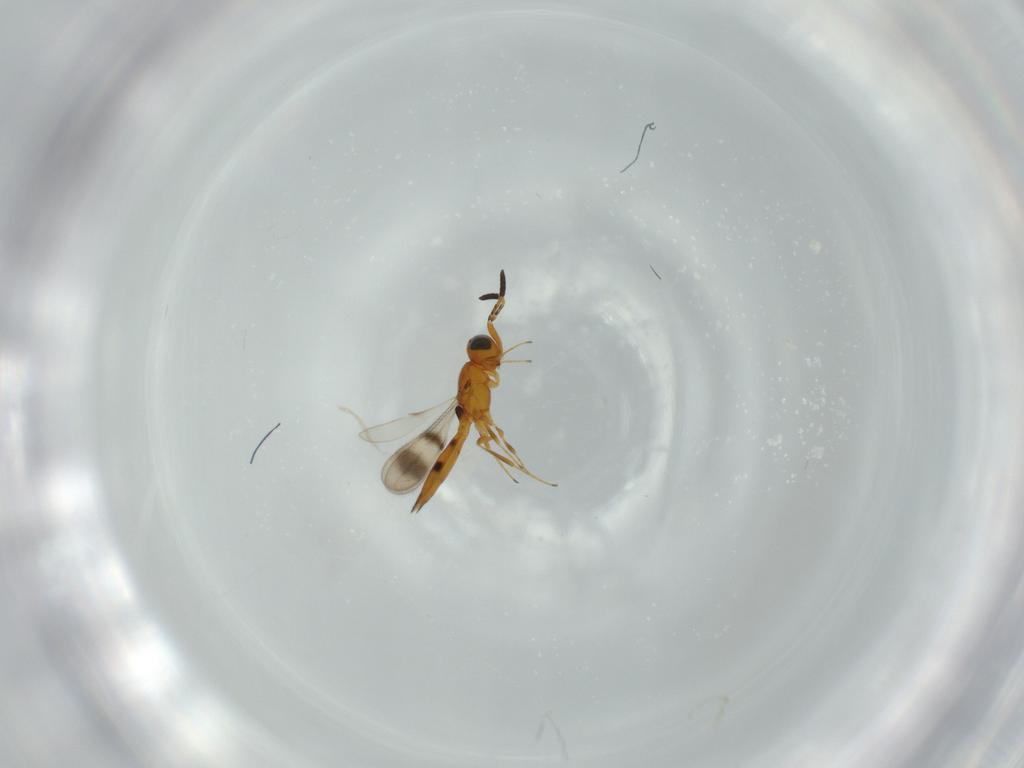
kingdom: Animalia
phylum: Arthropoda
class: Insecta
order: Hymenoptera
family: Scelionidae
